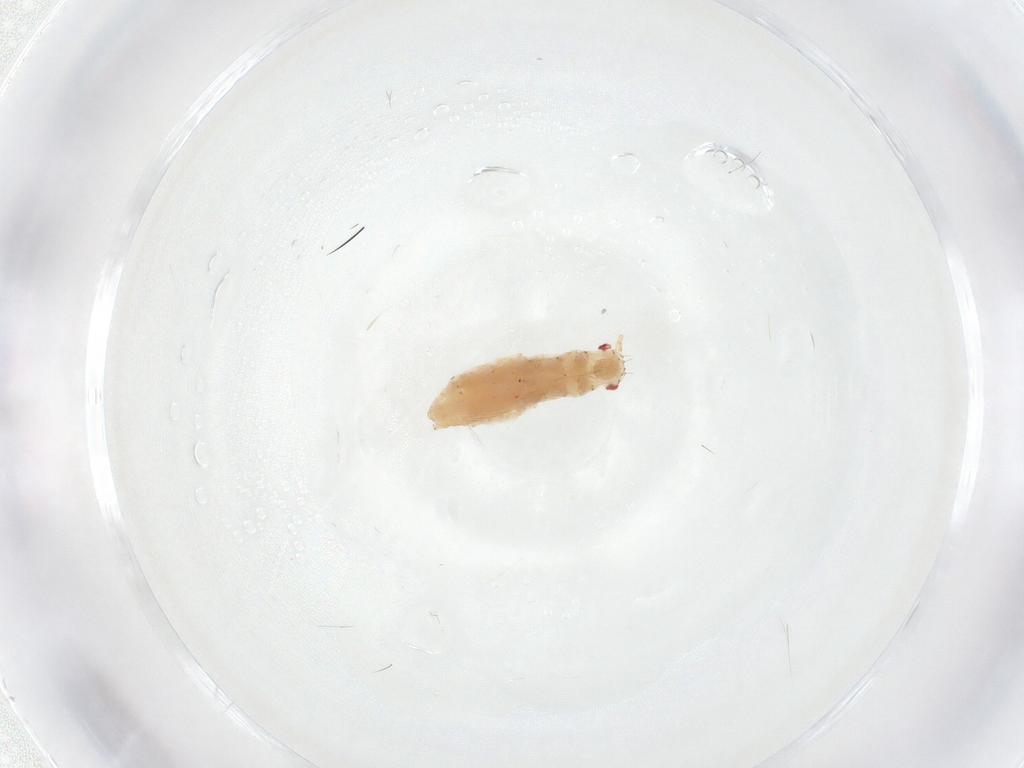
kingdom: Animalia
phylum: Arthropoda
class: Insecta
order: Hemiptera
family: Aphididae
